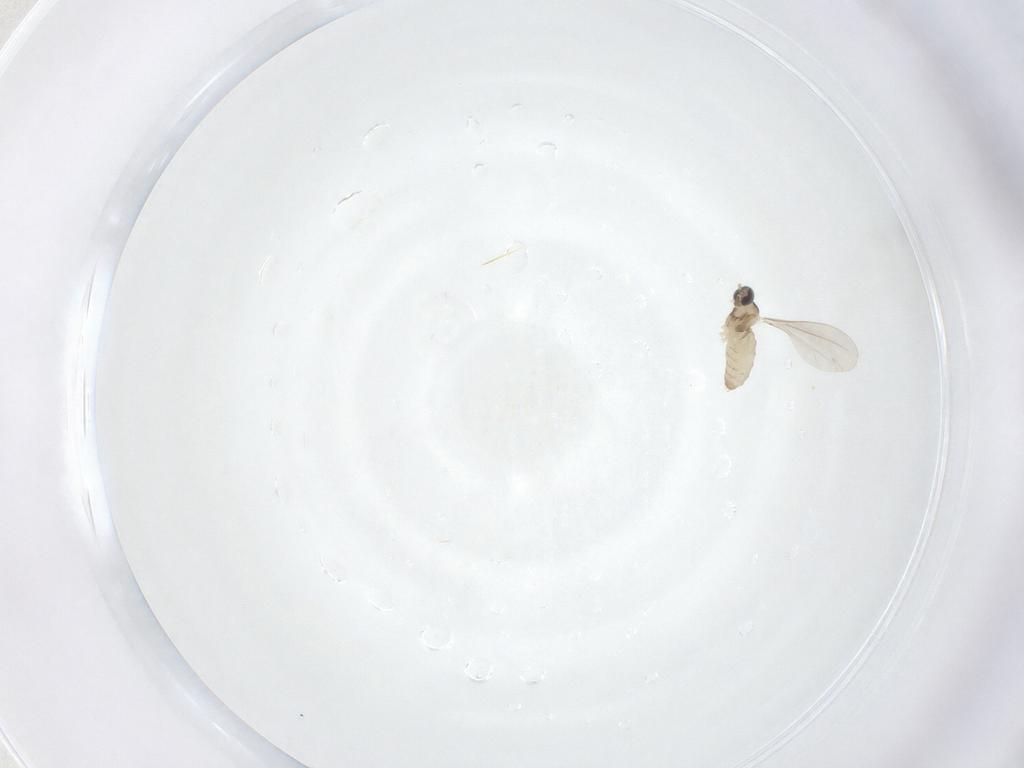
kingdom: Animalia
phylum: Arthropoda
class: Insecta
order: Diptera
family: Cecidomyiidae
